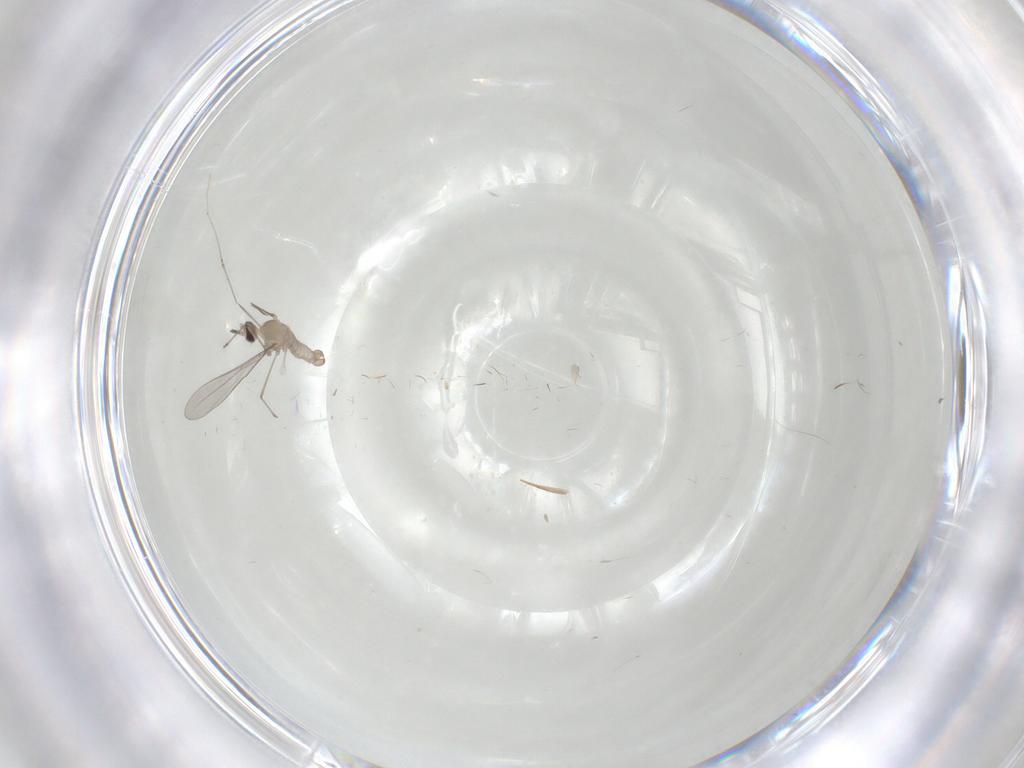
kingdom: Animalia
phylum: Arthropoda
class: Insecta
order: Diptera
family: Cecidomyiidae
